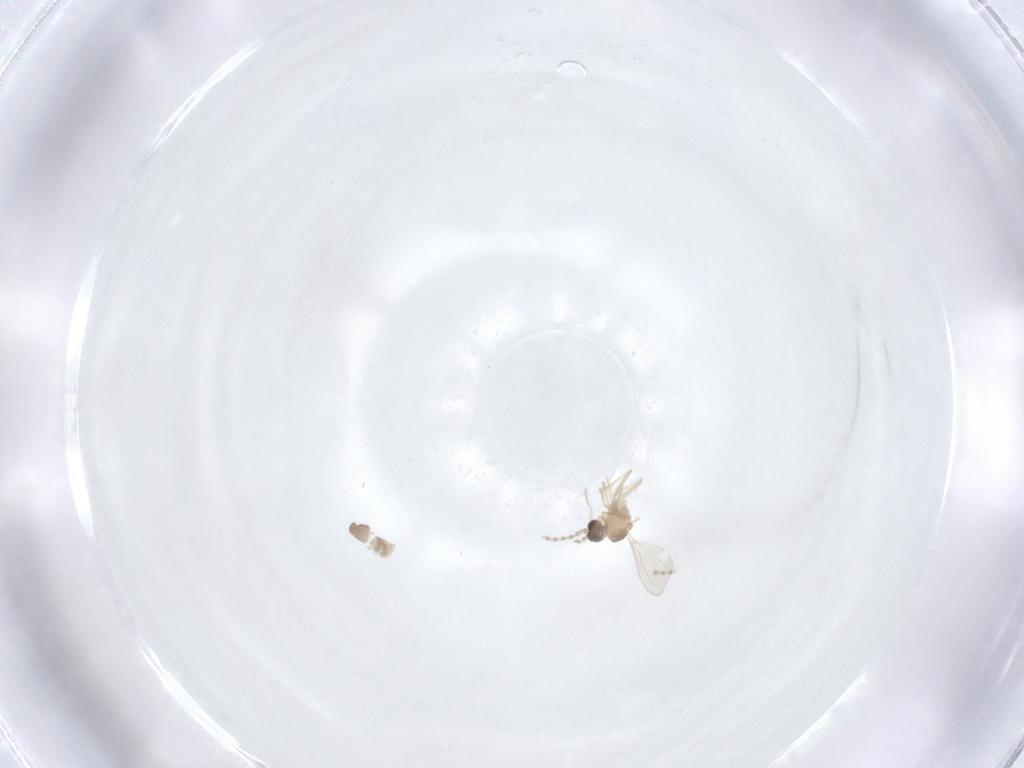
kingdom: Animalia
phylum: Arthropoda
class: Insecta
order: Diptera
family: Cecidomyiidae
